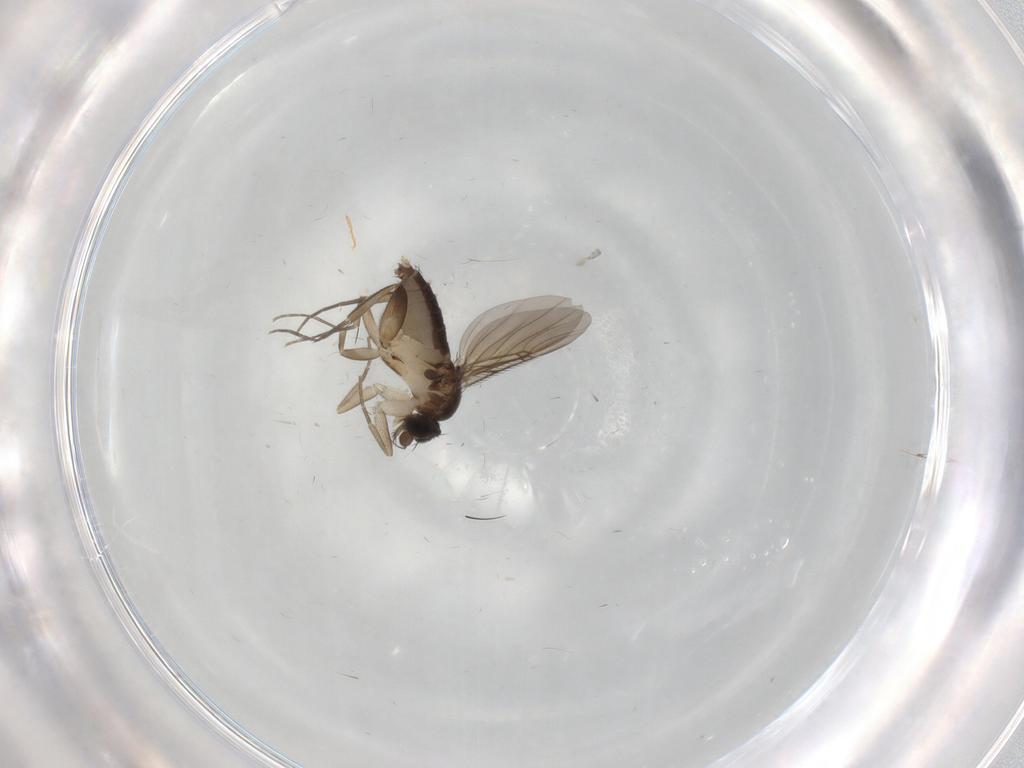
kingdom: Animalia
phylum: Arthropoda
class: Insecta
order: Diptera
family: Phoridae
